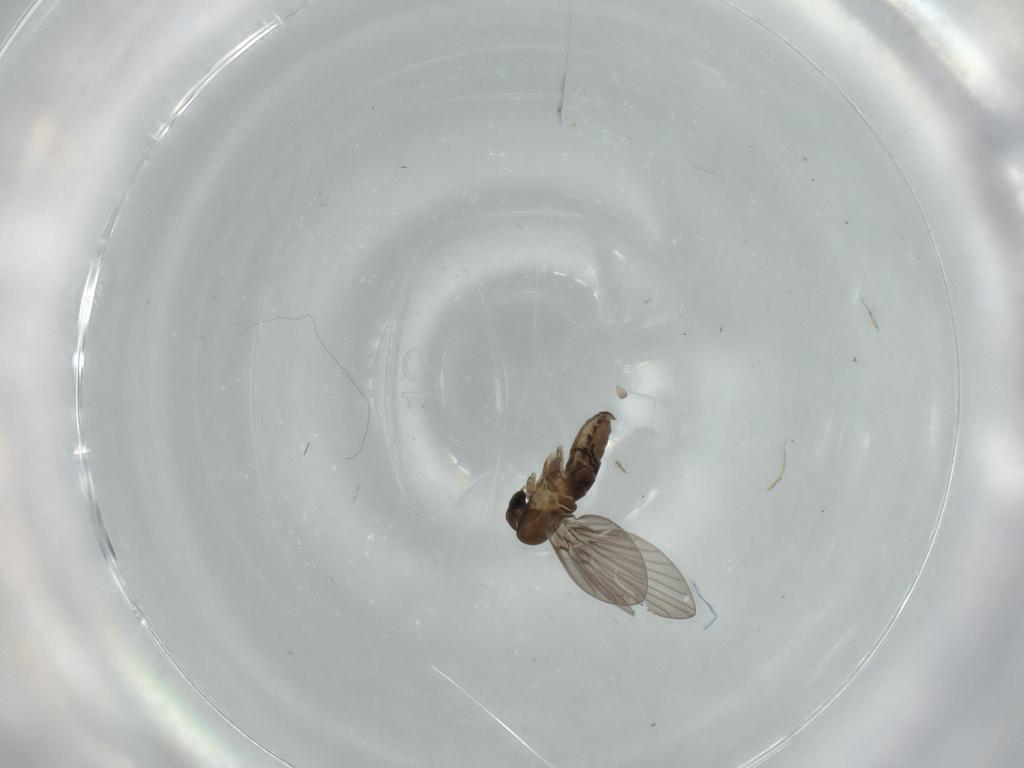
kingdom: Animalia
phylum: Arthropoda
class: Insecta
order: Diptera
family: Psychodidae
